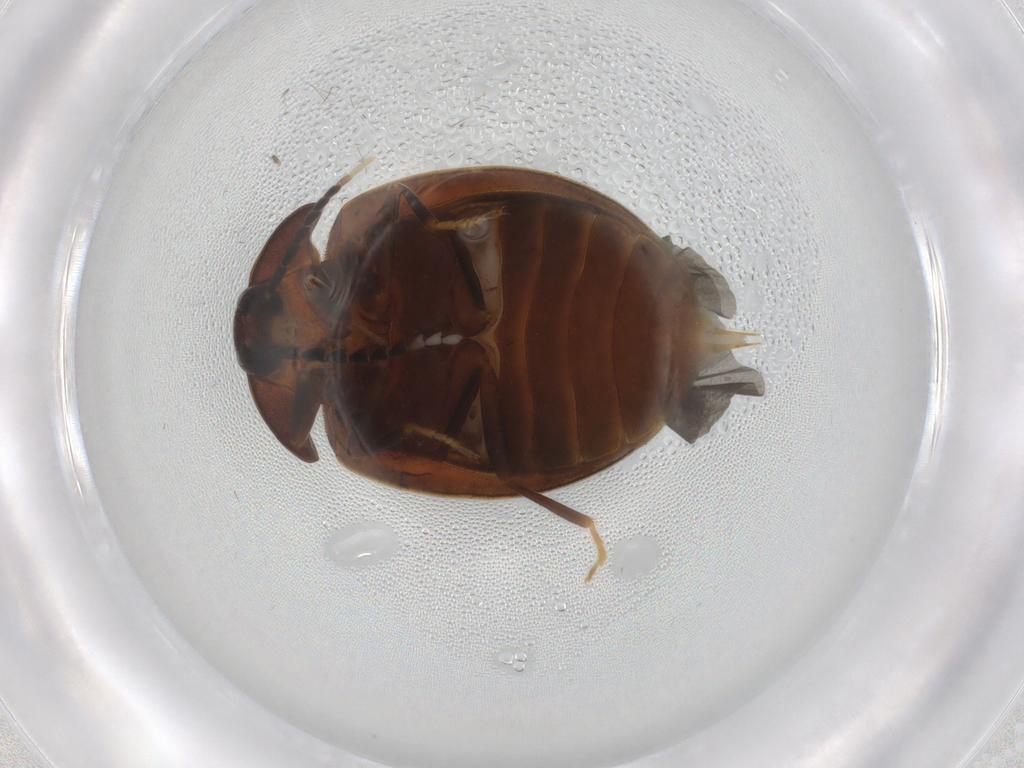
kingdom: Animalia
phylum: Arthropoda
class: Insecta
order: Coleoptera
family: Psephenidae
